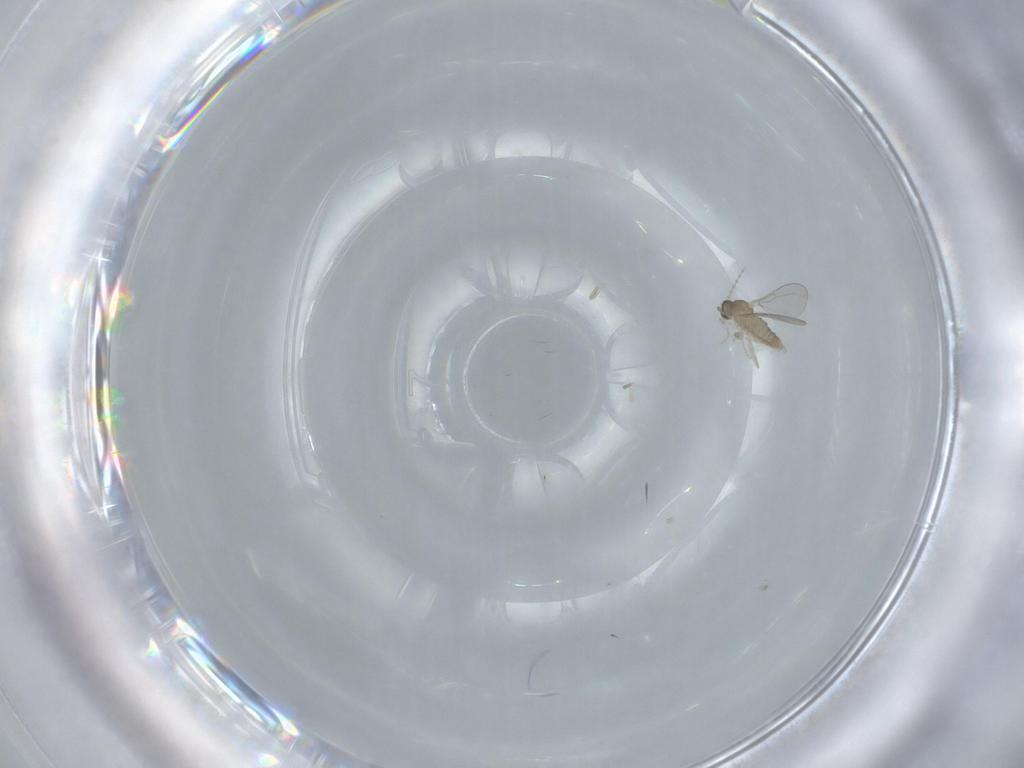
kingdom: Animalia
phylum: Arthropoda
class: Insecta
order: Diptera
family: Cecidomyiidae
